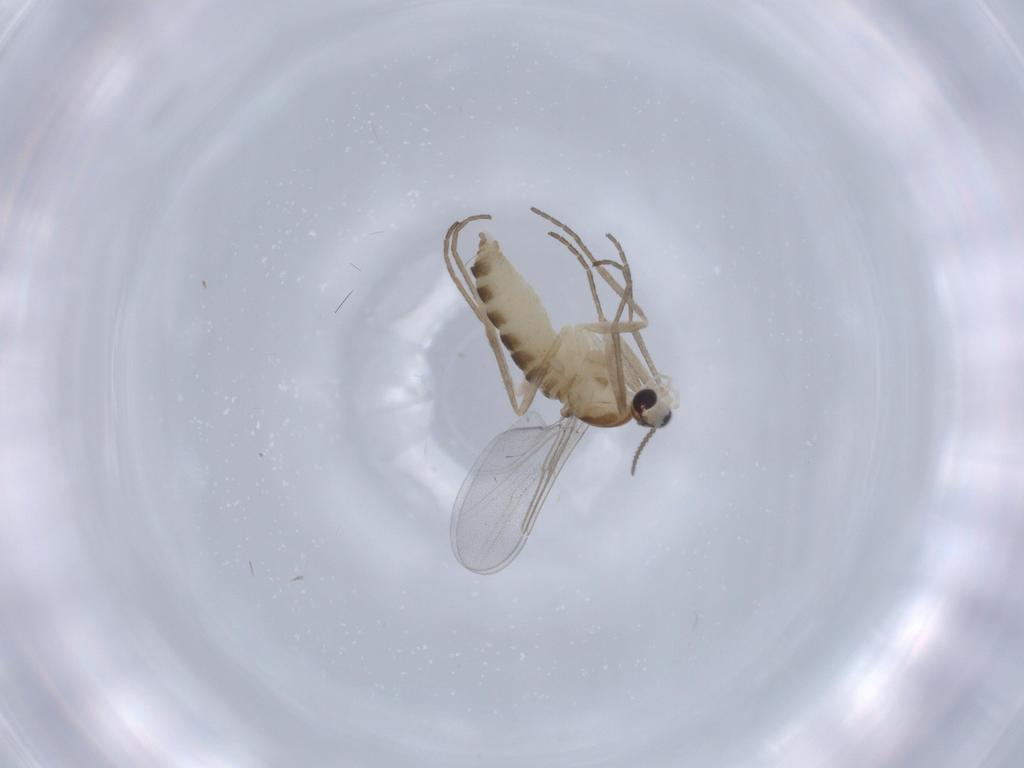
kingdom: Animalia
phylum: Arthropoda
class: Insecta
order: Diptera
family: Cecidomyiidae
